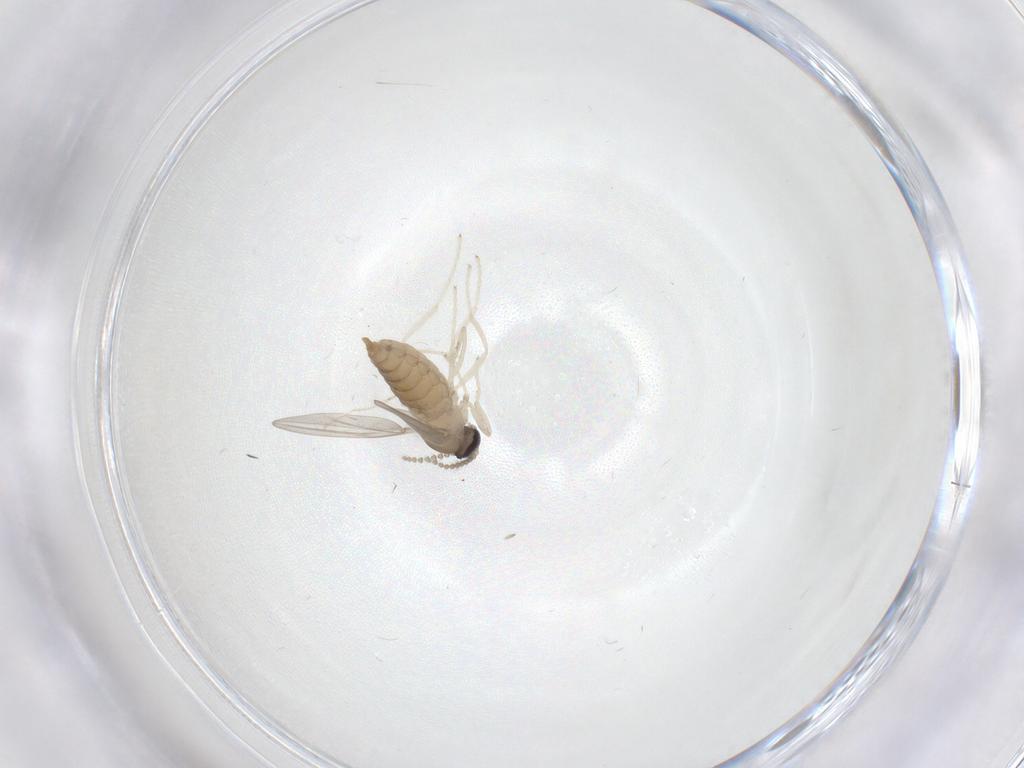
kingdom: Animalia
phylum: Arthropoda
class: Insecta
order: Diptera
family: Cecidomyiidae
